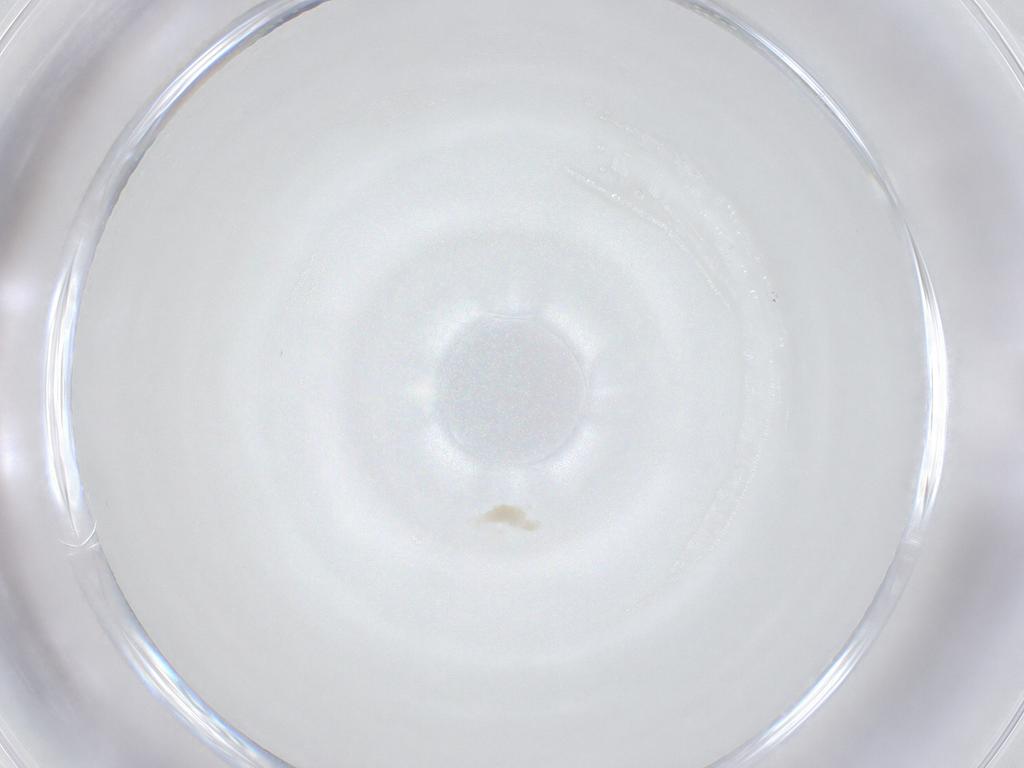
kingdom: Animalia
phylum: Arthropoda
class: Arachnida
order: Trombidiformes
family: Eupodidae
